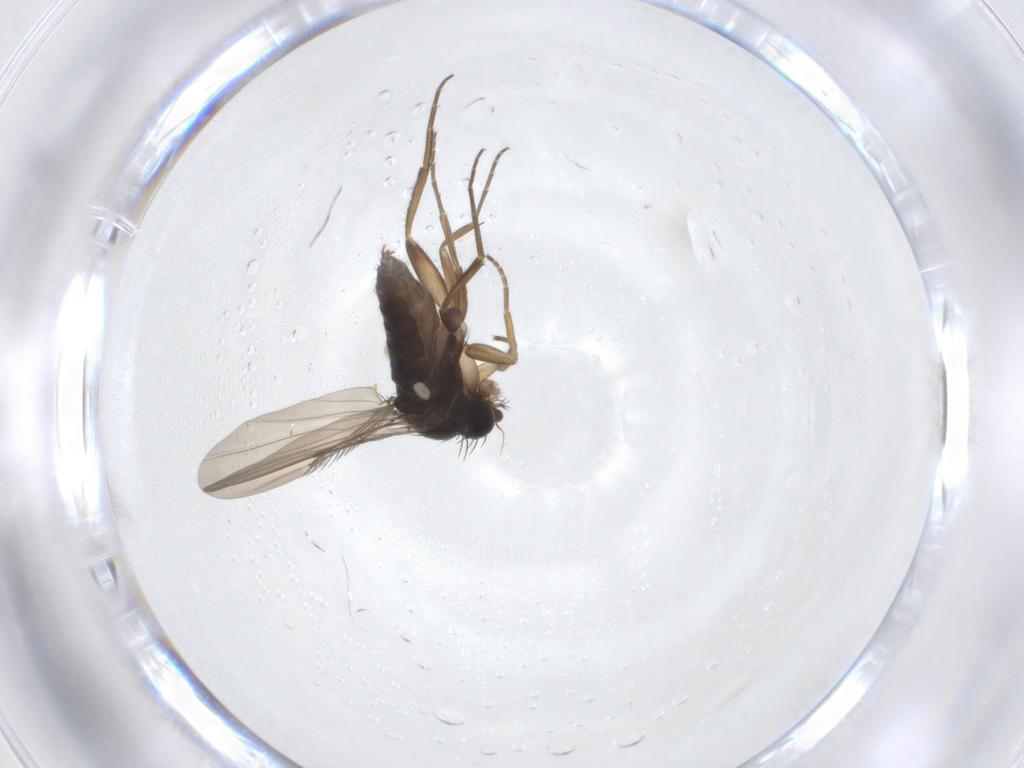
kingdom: Animalia
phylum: Arthropoda
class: Insecta
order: Diptera
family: Phoridae
